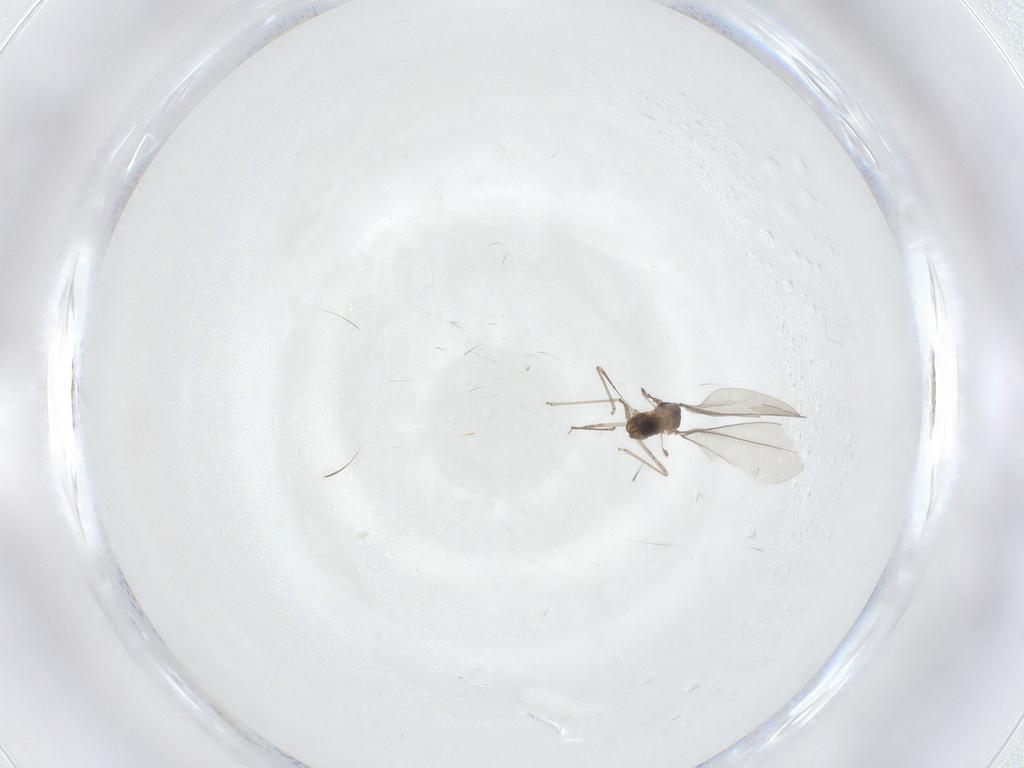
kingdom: Animalia
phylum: Arthropoda
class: Insecta
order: Diptera
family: Cecidomyiidae
